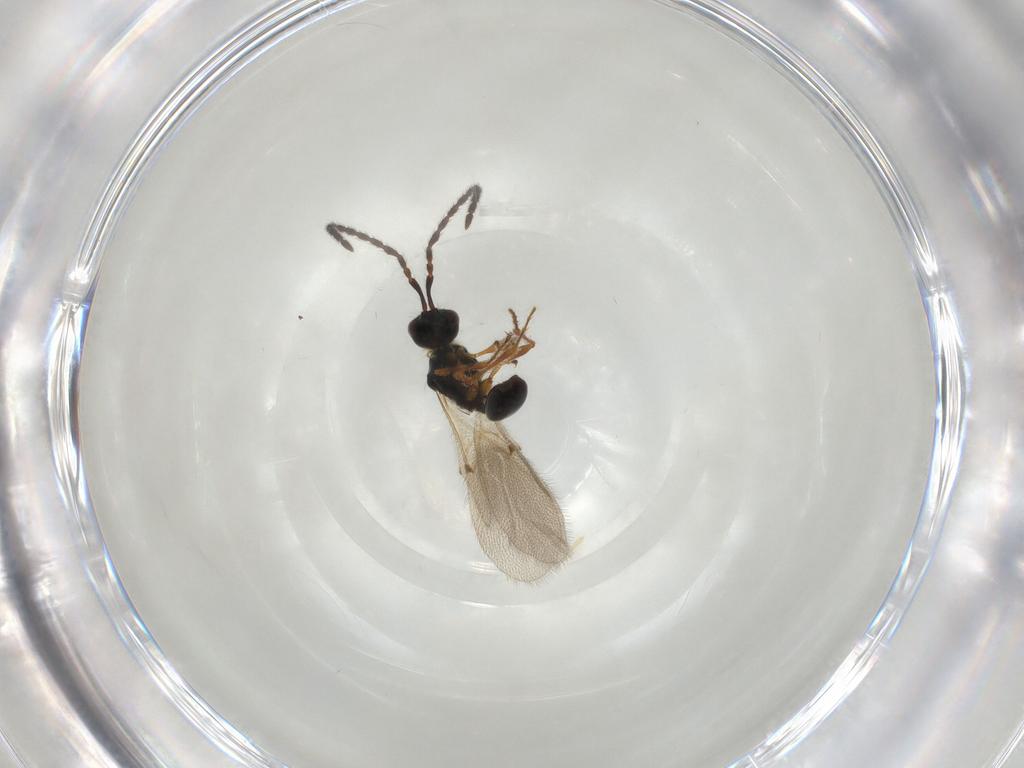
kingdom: Animalia
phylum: Arthropoda
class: Insecta
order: Hymenoptera
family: Diapriidae
